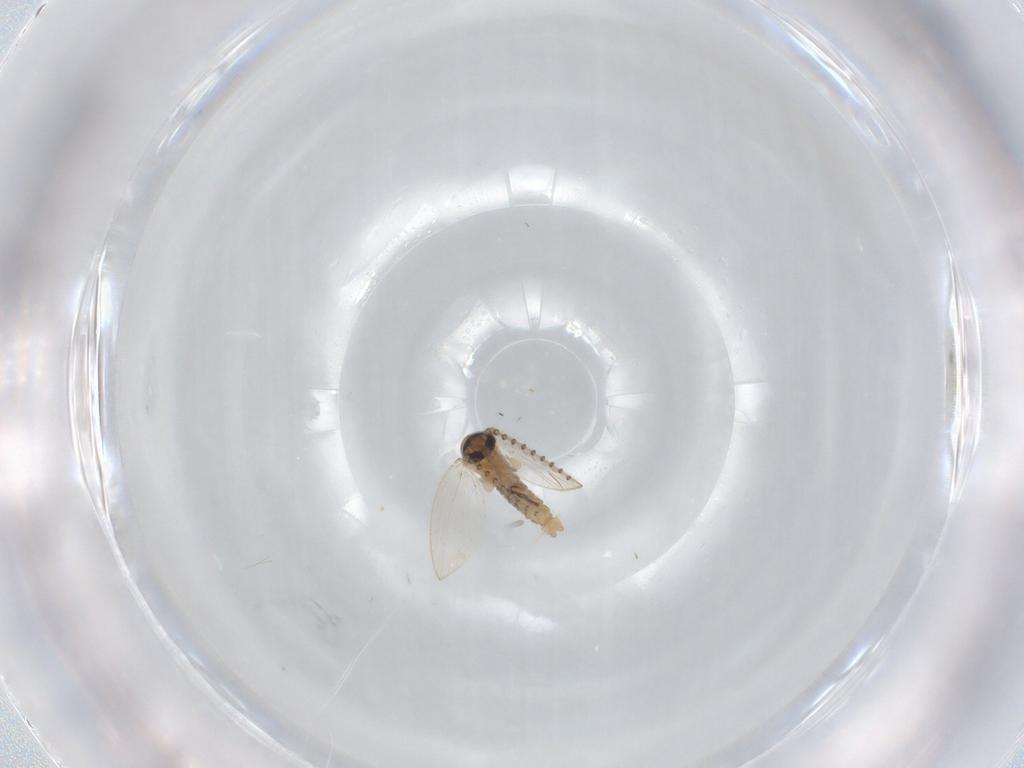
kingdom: Animalia
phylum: Arthropoda
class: Insecta
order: Diptera
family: Psychodidae
